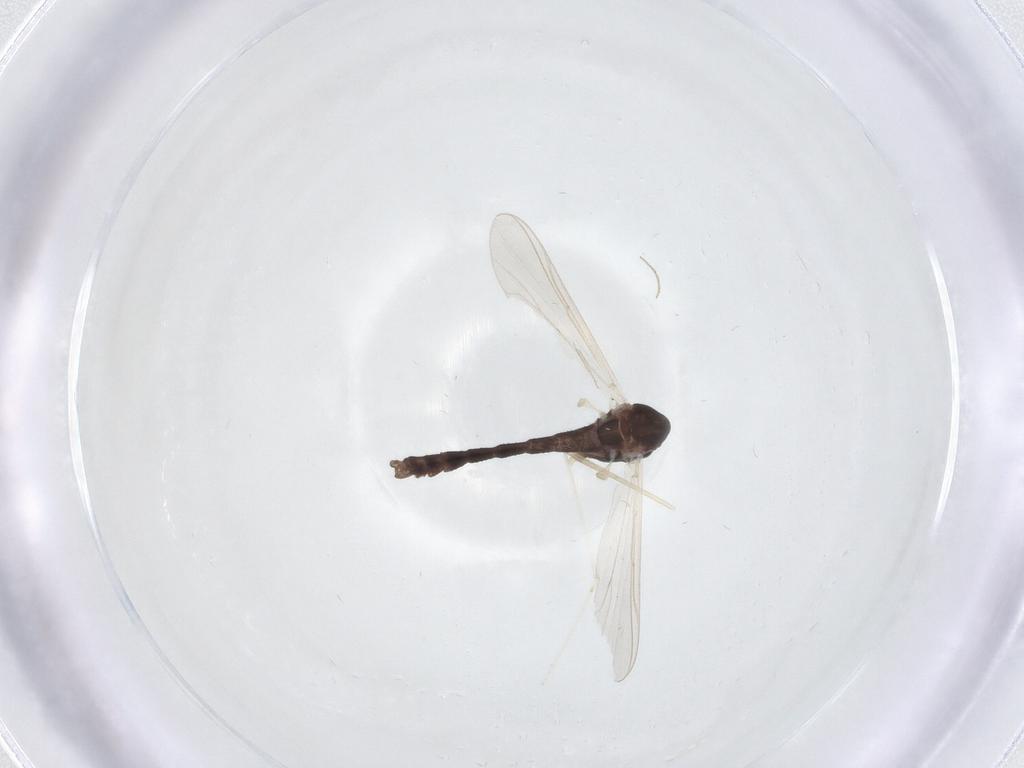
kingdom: Animalia
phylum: Arthropoda
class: Insecta
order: Diptera
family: Chironomidae
